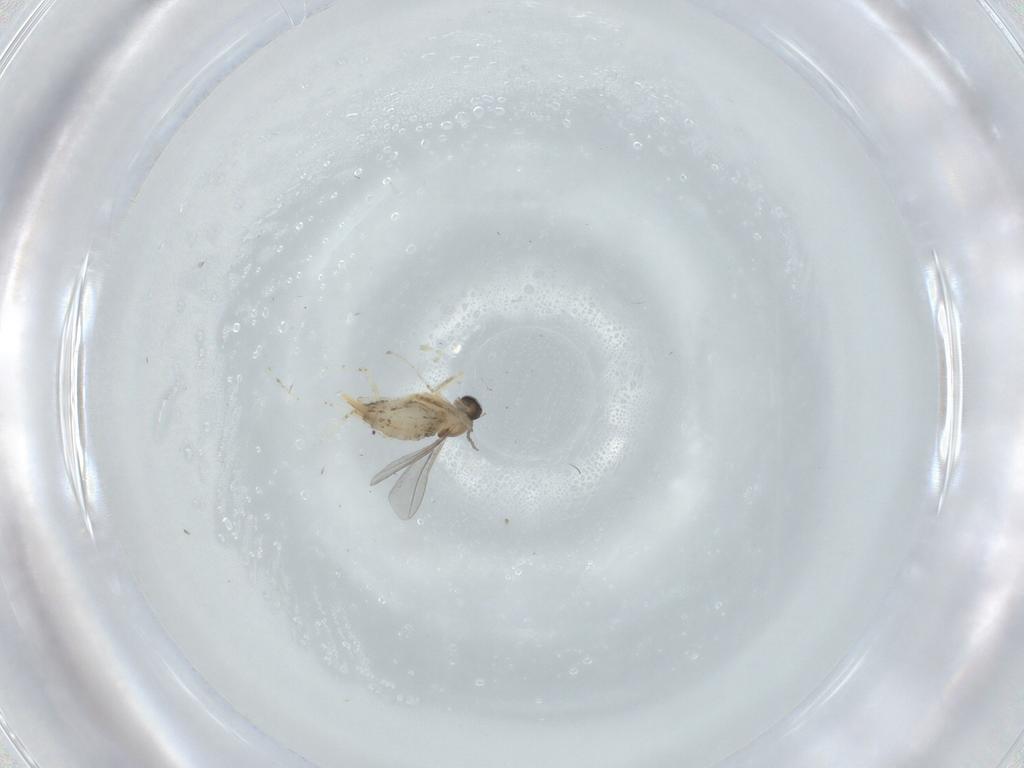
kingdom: Animalia
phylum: Arthropoda
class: Insecta
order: Diptera
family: Cecidomyiidae
